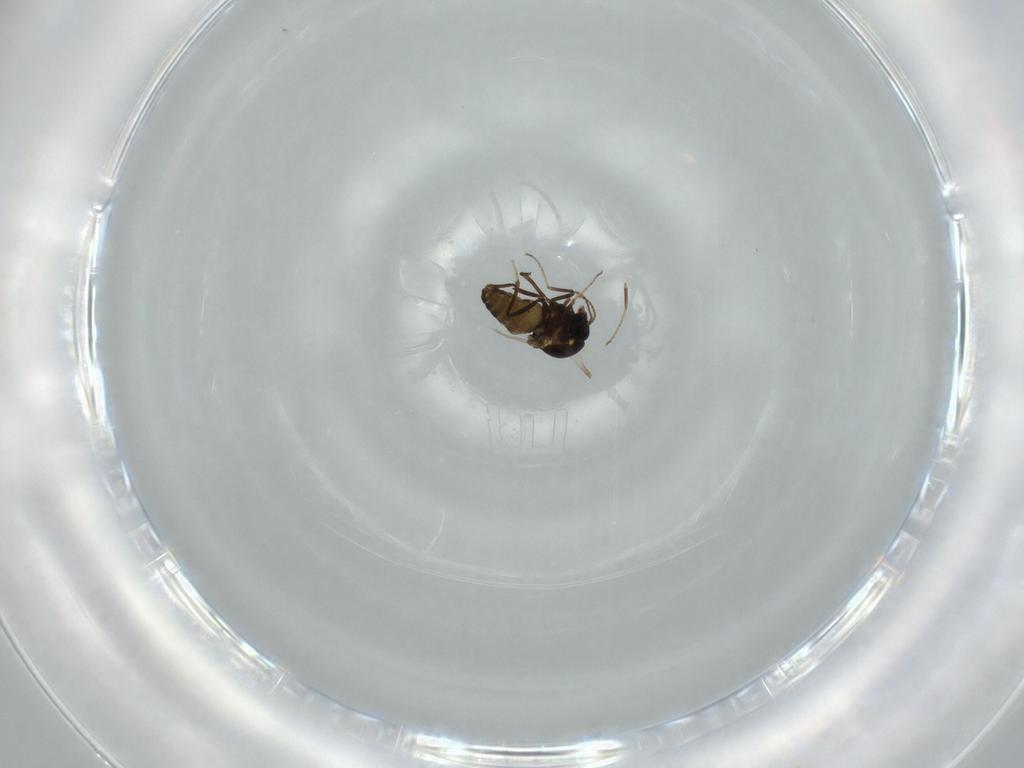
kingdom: Animalia
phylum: Arthropoda
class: Insecta
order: Diptera
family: Ceratopogonidae
